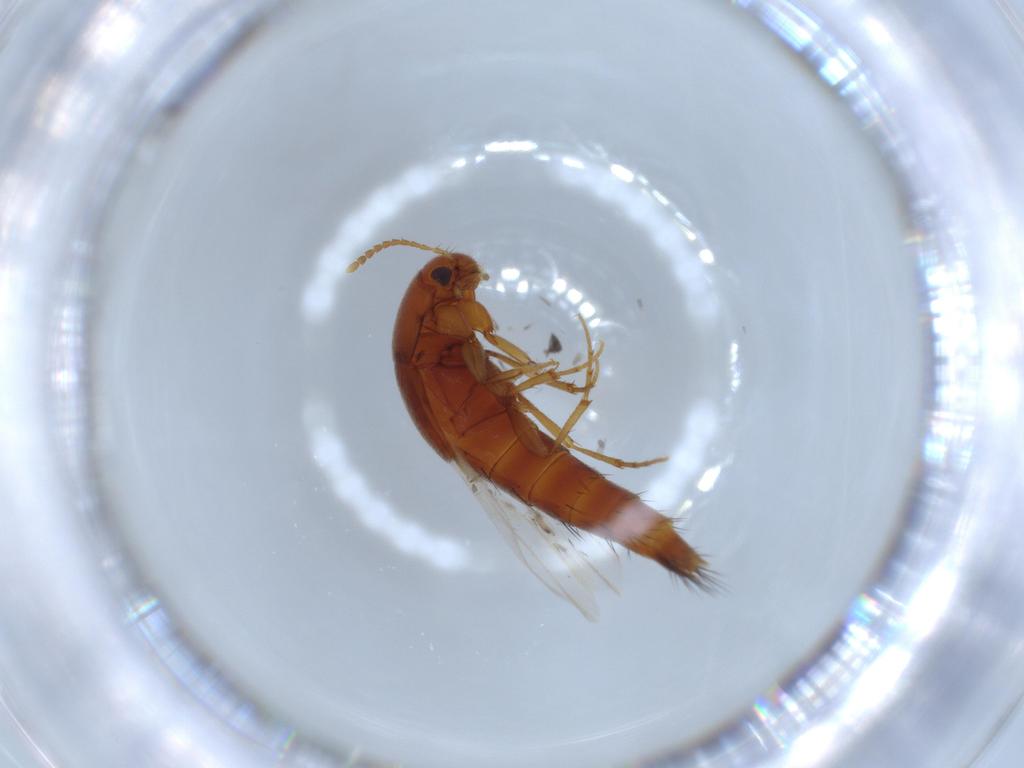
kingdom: Animalia
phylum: Arthropoda
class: Insecta
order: Coleoptera
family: Staphylinidae
